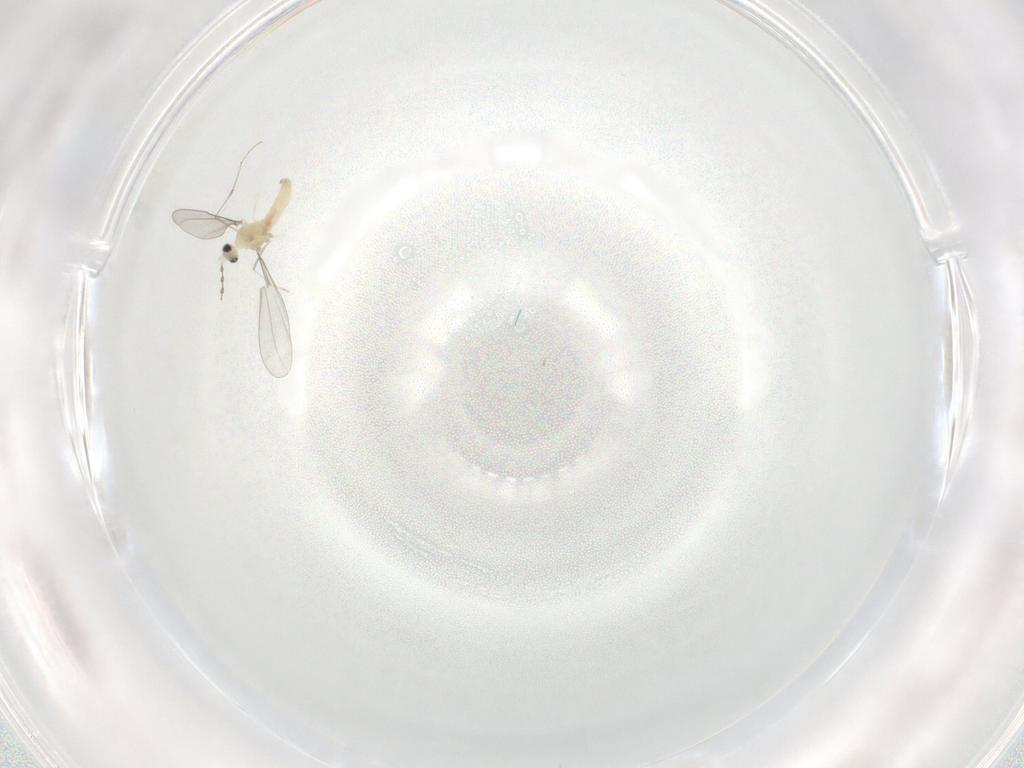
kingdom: Animalia
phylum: Arthropoda
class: Insecta
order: Diptera
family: Cecidomyiidae
